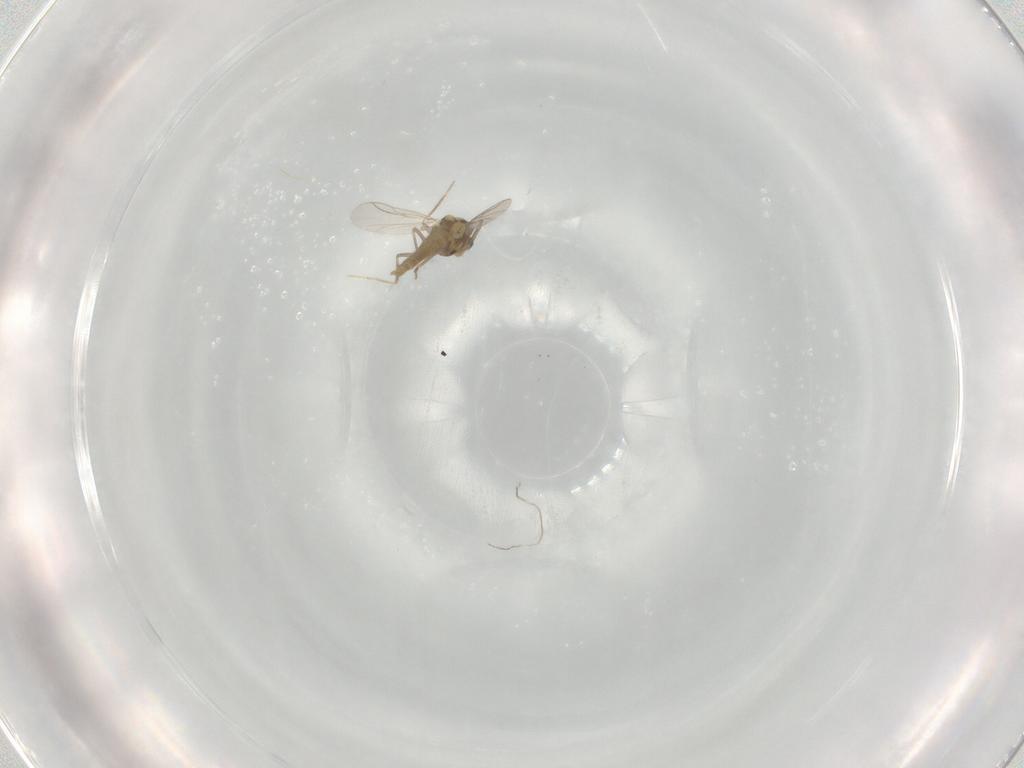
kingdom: Animalia
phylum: Arthropoda
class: Insecta
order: Diptera
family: Chironomidae
